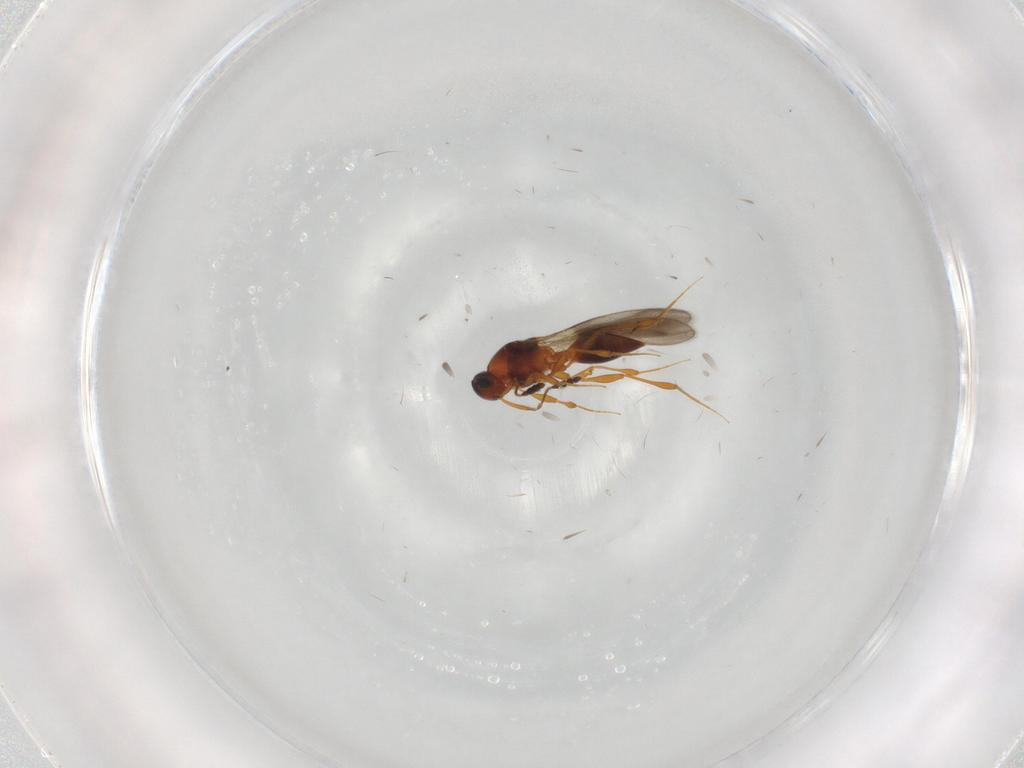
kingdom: Animalia
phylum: Arthropoda
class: Insecta
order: Hymenoptera
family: Platygastridae
